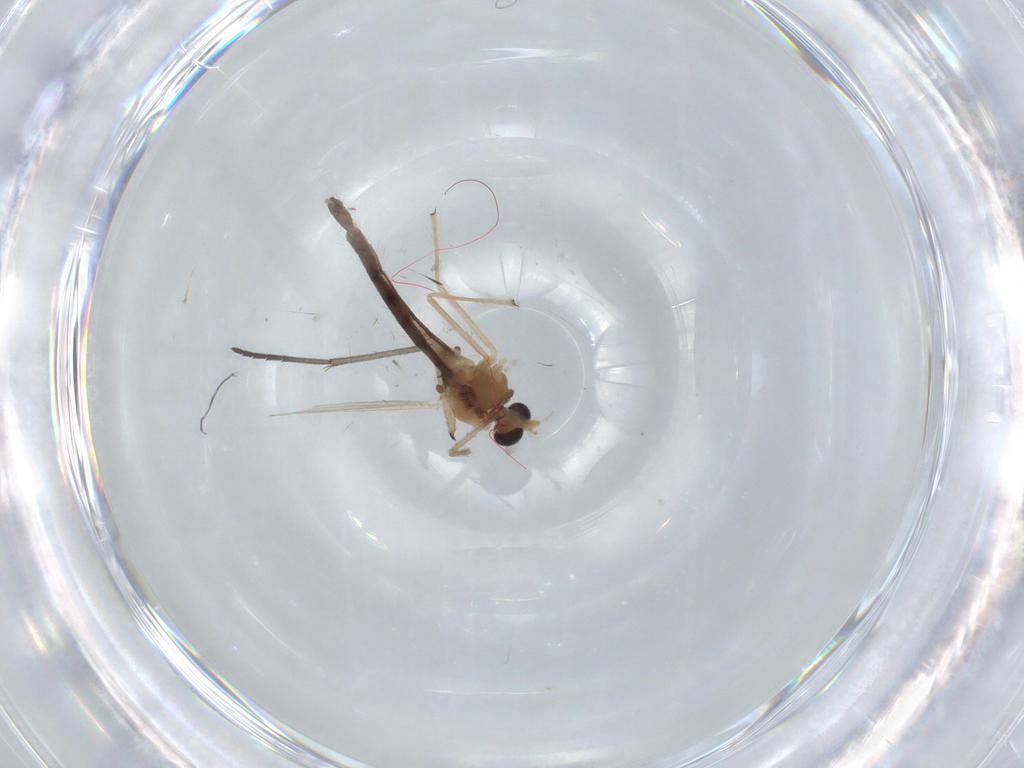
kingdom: Animalia
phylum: Arthropoda
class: Insecta
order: Diptera
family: Chironomidae
